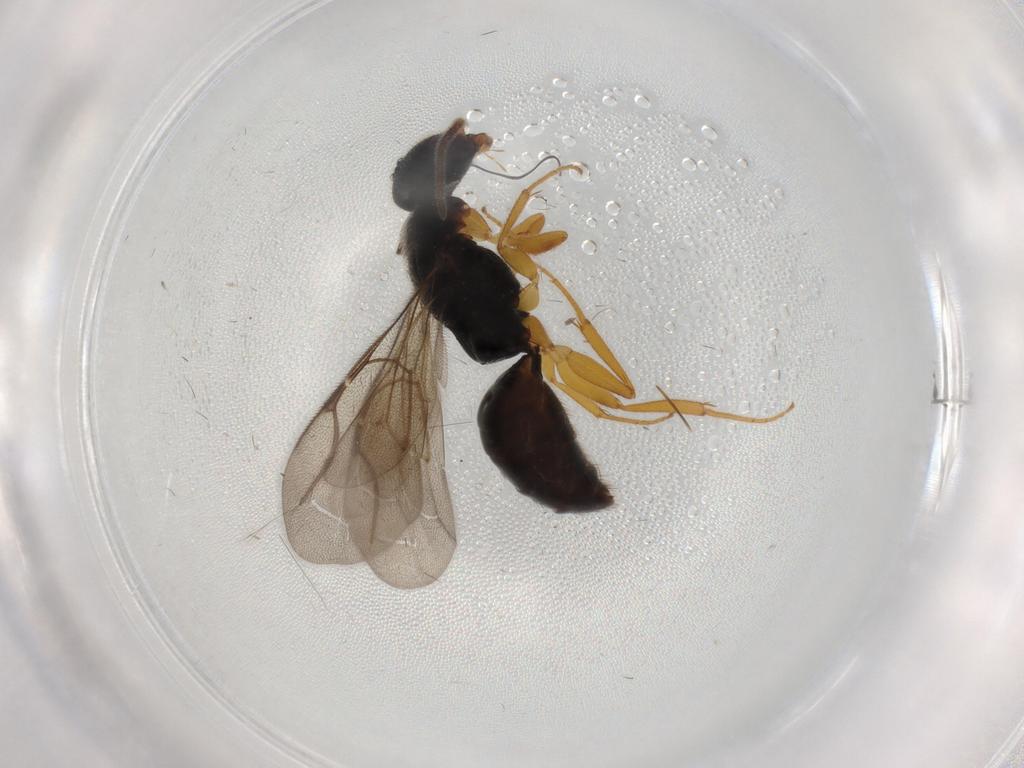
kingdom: Animalia
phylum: Arthropoda
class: Insecta
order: Hymenoptera
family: Bethylidae
